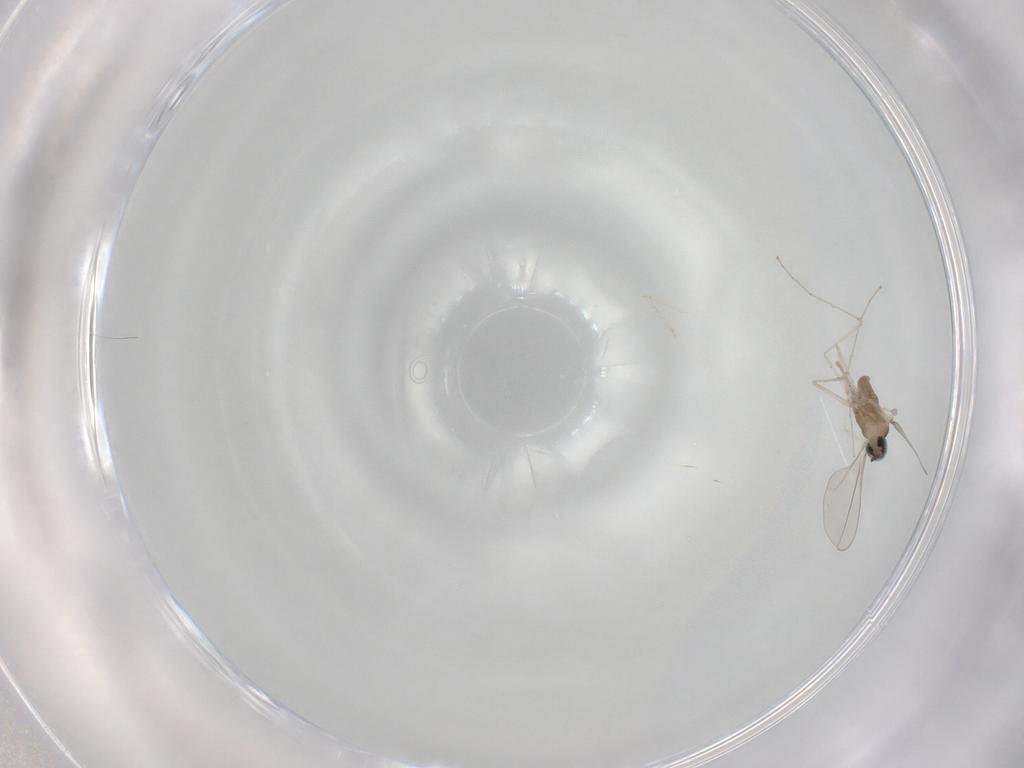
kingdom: Animalia
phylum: Arthropoda
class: Insecta
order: Diptera
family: Cecidomyiidae
